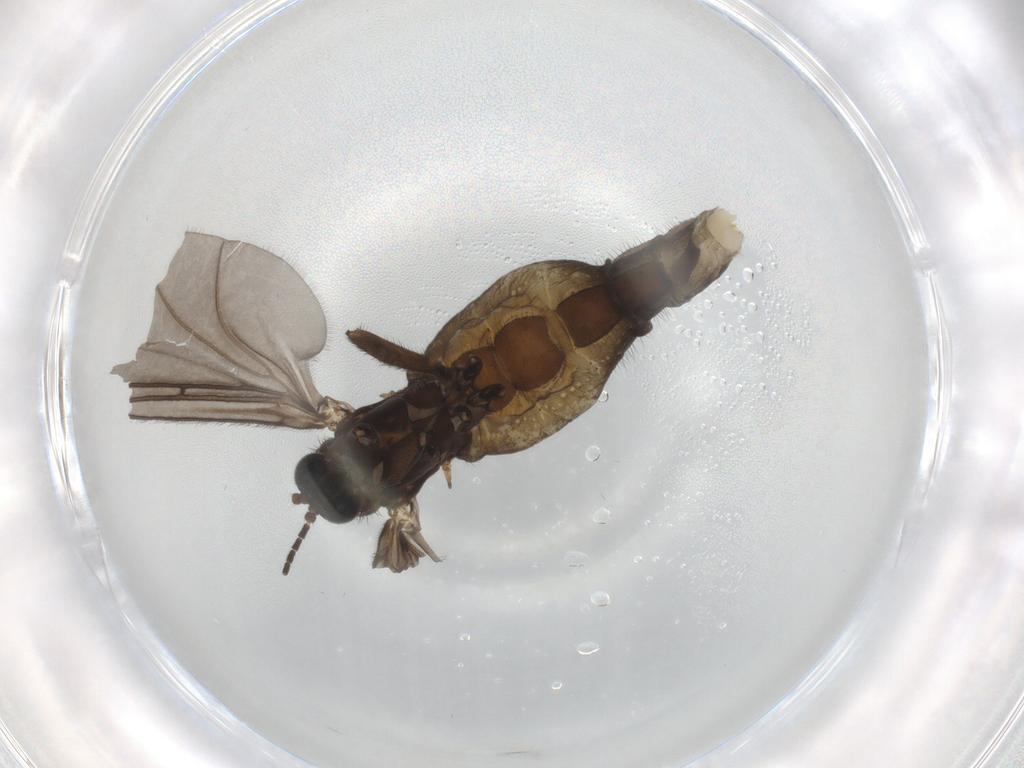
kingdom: Animalia
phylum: Arthropoda
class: Insecta
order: Diptera
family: Sciaridae
